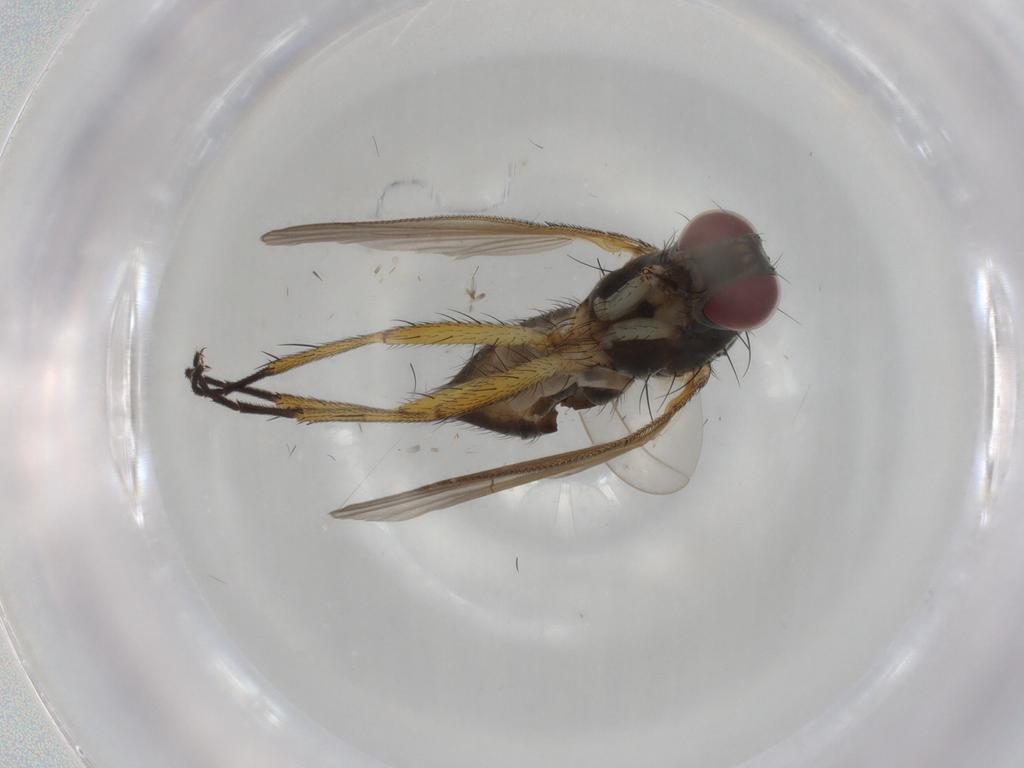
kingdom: Animalia
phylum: Arthropoda
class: Insecta
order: Diptera
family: Muscidae
